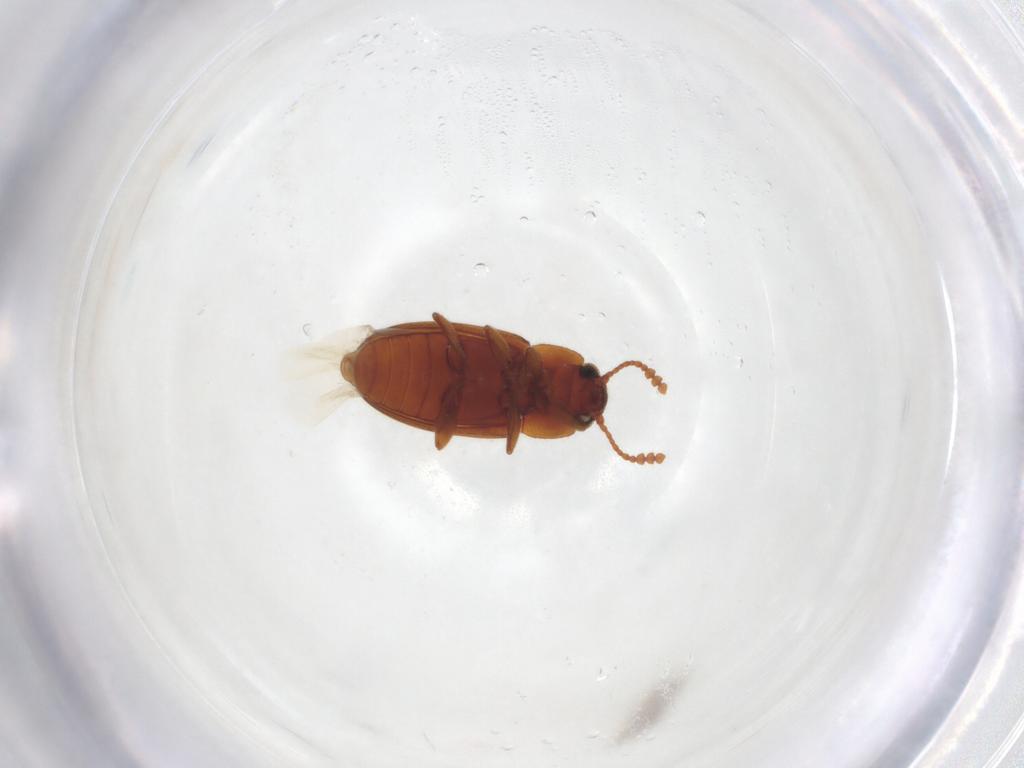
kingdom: Animalia
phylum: Arthropoda
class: Insecta
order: Coleoptera
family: Erotylidae
